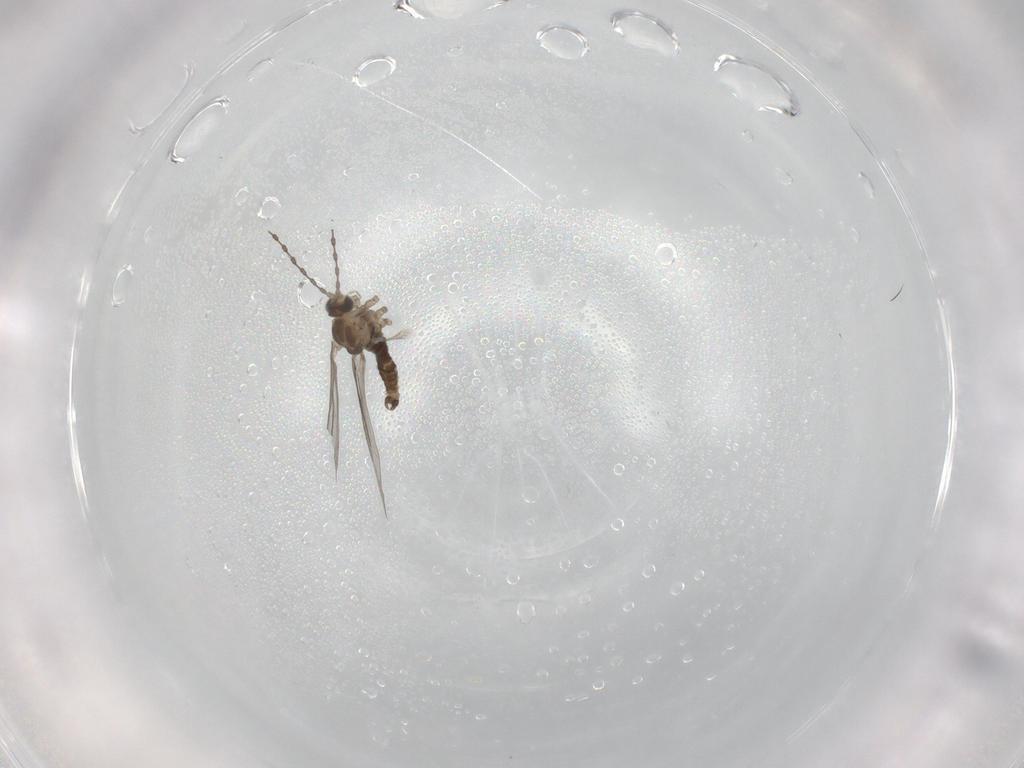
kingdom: Animalia
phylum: Arthropoda
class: Insecta
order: Diptera
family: Cecidomyiidae
